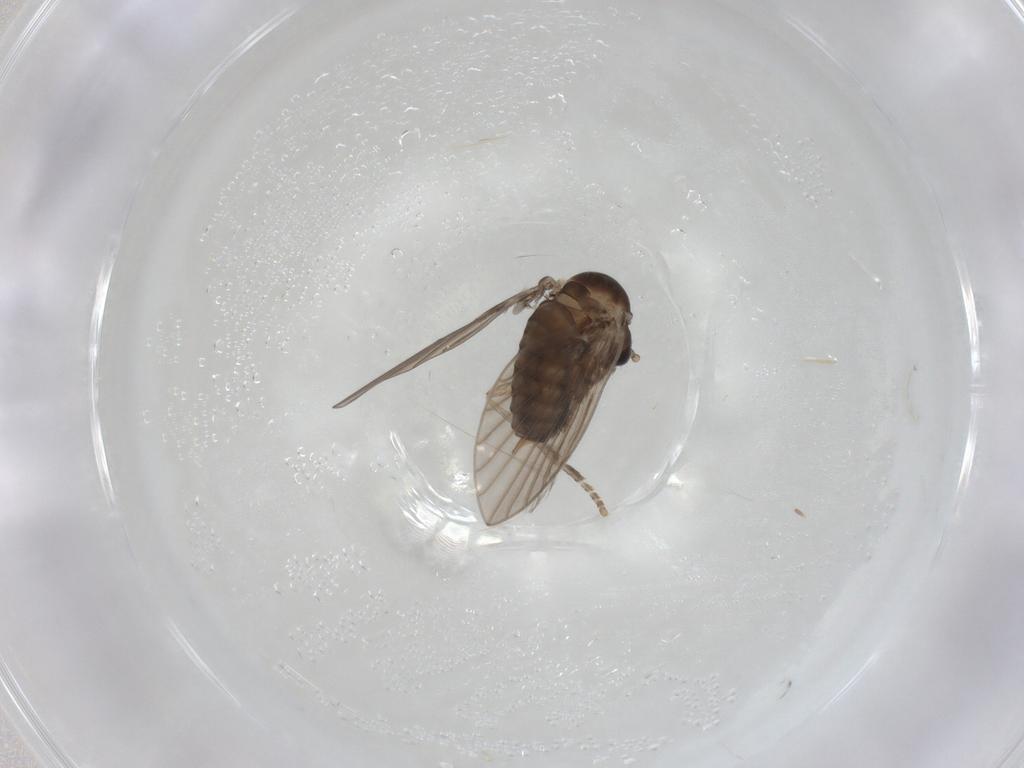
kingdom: Animalia
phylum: Arthropoda
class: Insecta
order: Diptera
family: Psychodidae
